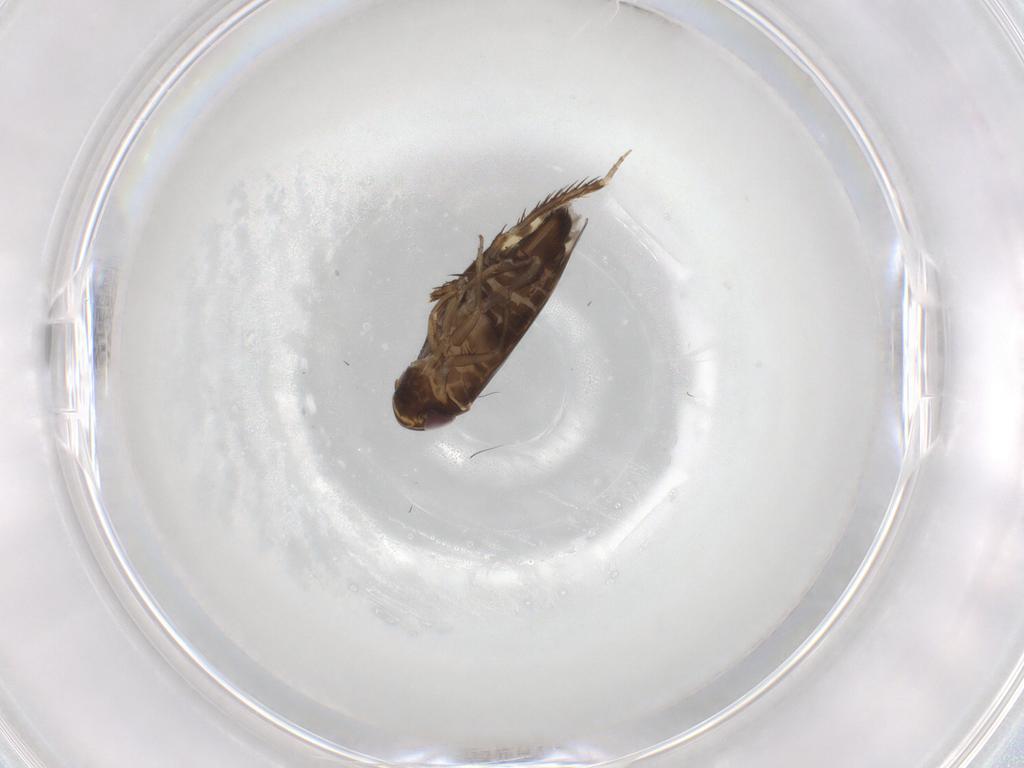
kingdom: Animalia
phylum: Arthropoda
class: Insecta
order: Hemiptera
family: Cicadellidae
